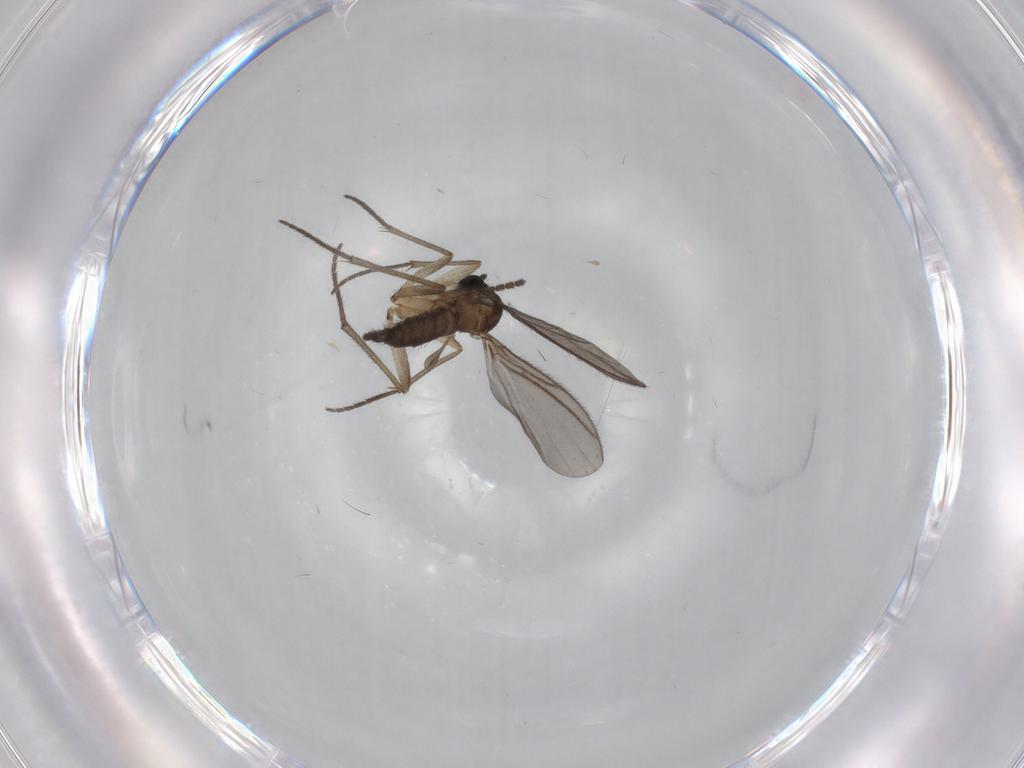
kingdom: Animalia
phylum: Arthropoda
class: Insecta
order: Diptera
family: Sciaridae
